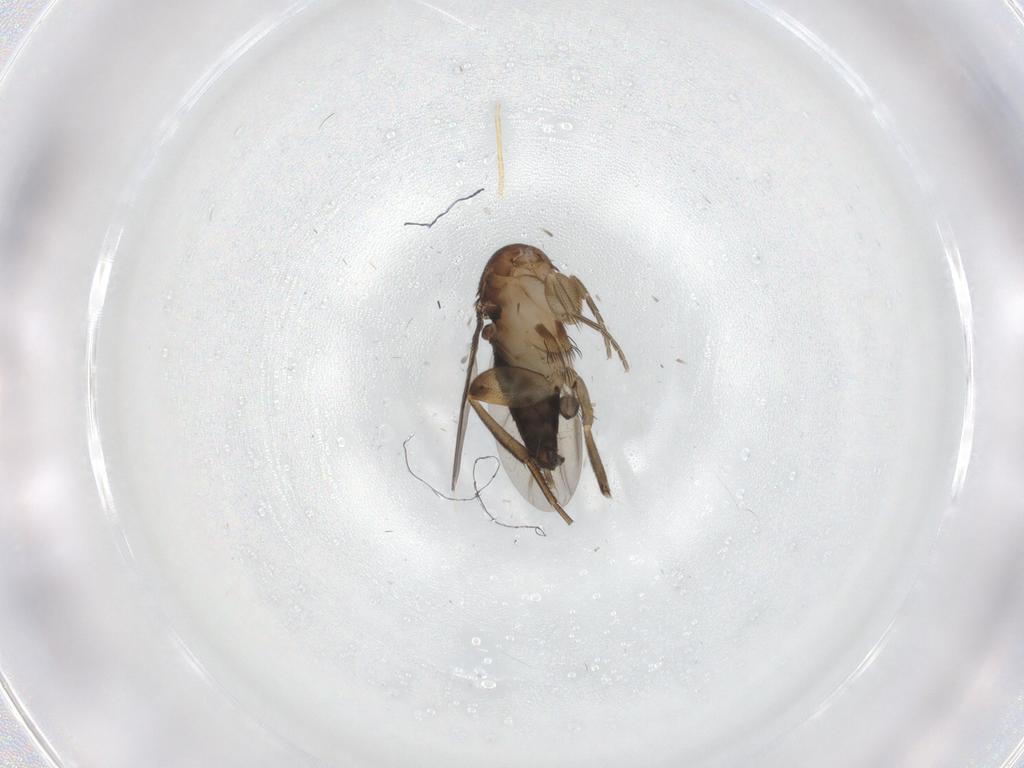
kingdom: Animalia
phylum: Arthropoda
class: Insecta
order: Diptera
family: Phoridae
